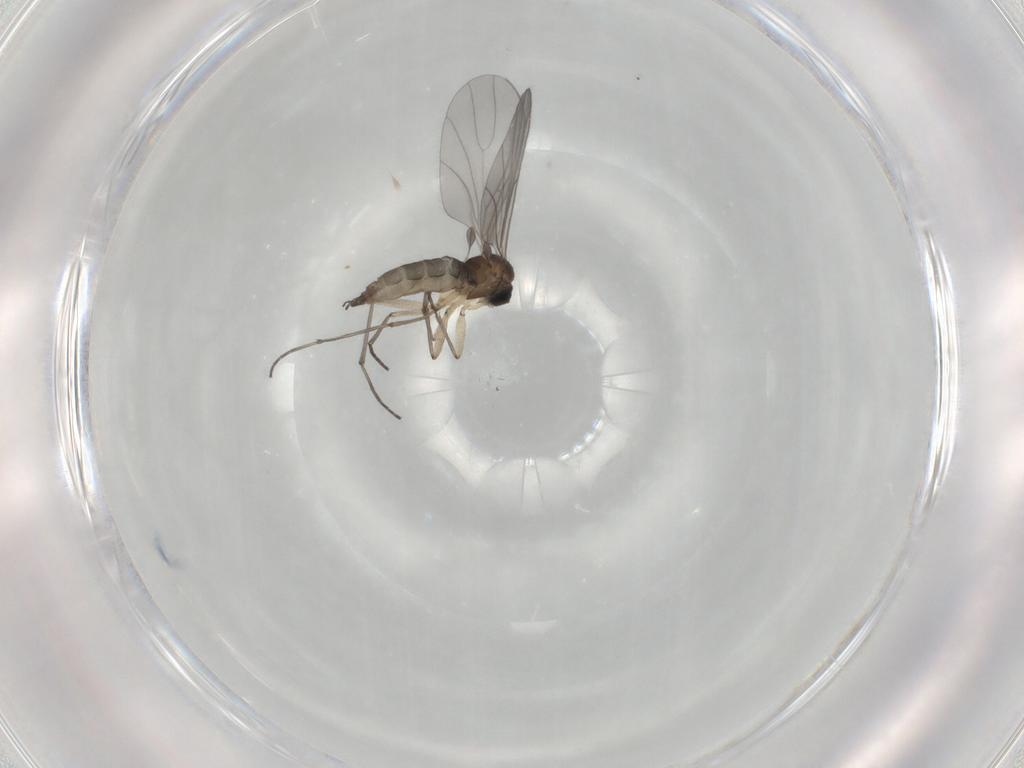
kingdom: Animalia
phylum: Arthropoda
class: Insecta
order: Diptera
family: Sciaridae
